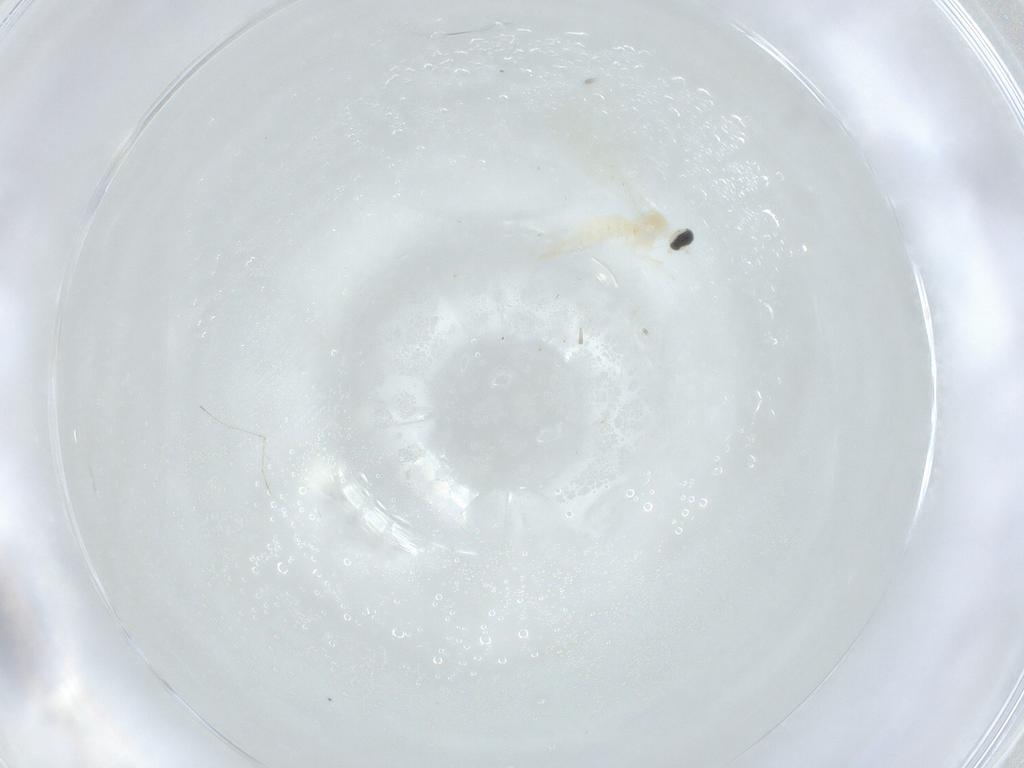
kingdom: Animalia
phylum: Arthropoda
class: Insecta
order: Diptera
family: Cecidomyiidae
